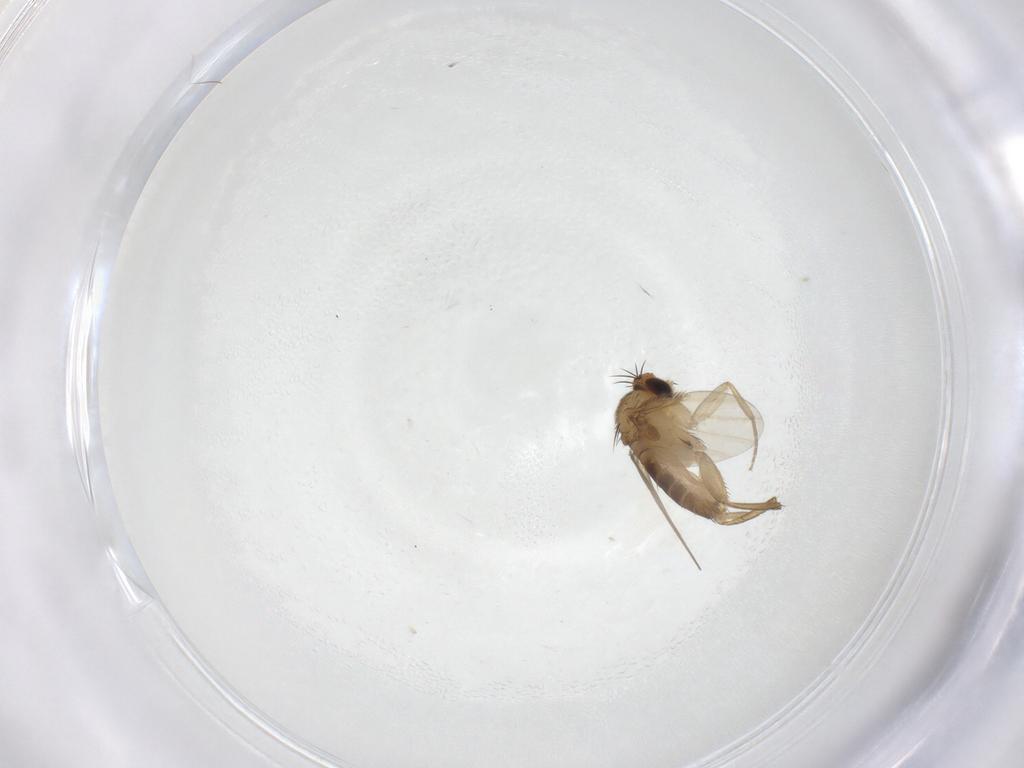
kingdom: Animalia
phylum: Arthropoda
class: Insecta
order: Diptera
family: Phoridae
